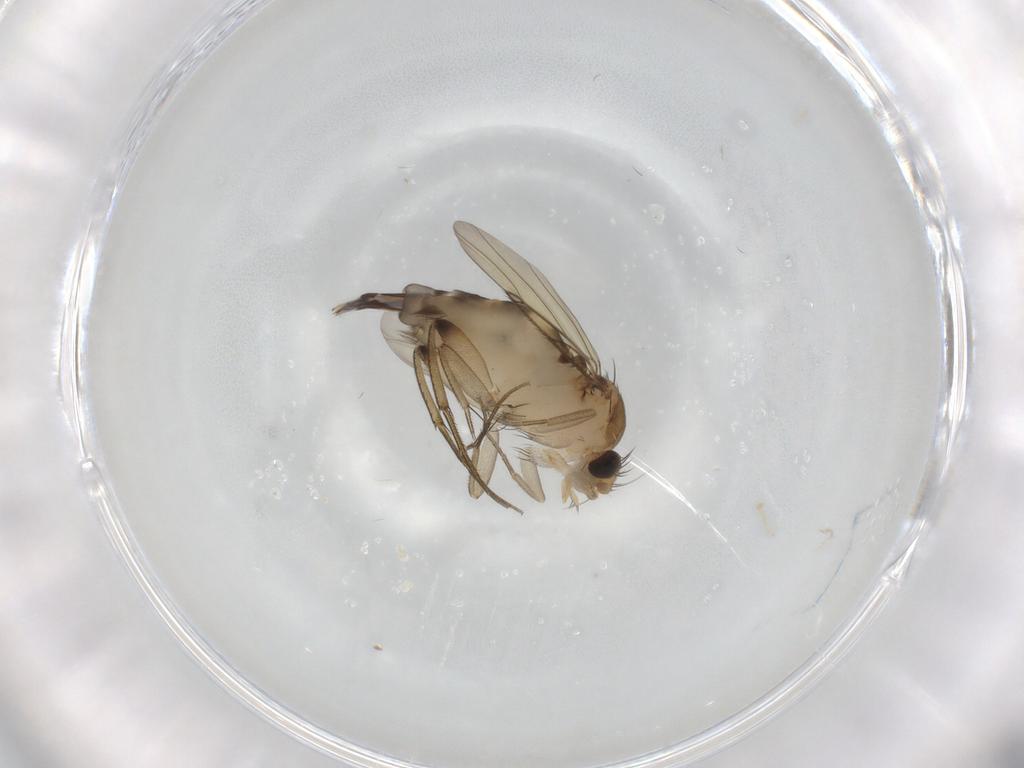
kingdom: Animalia
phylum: Arthropoda
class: Insecta
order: Diptera
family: Phoridae
